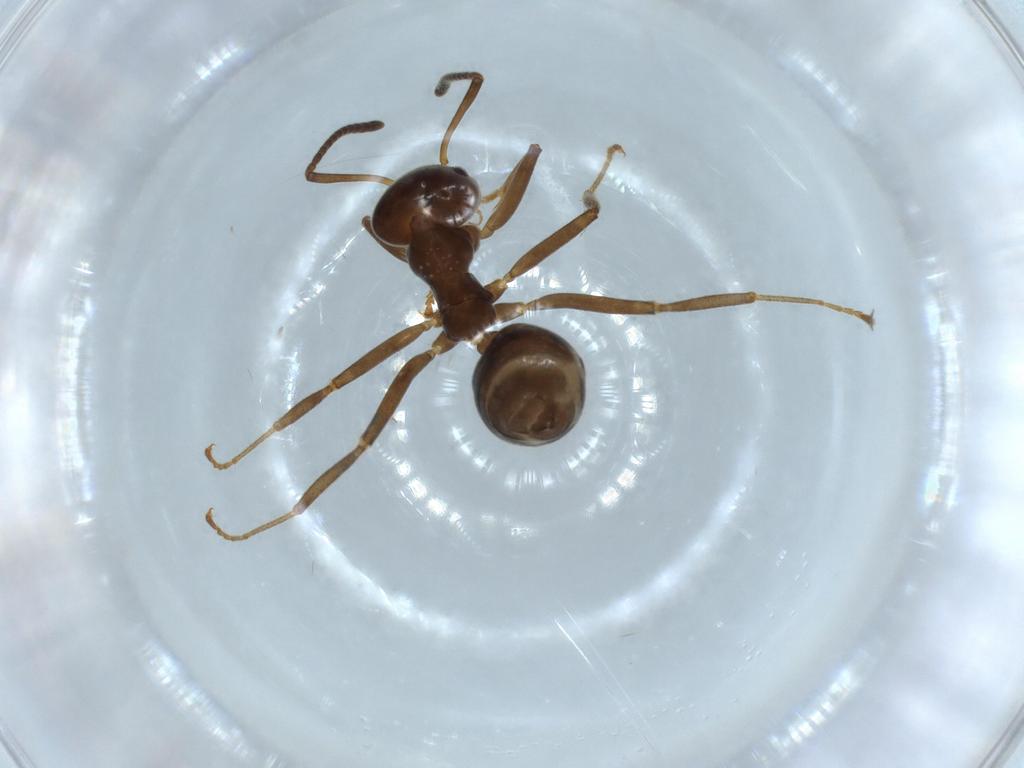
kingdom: Animalia
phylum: Arthropoda
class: Insecta
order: Hymenoptera
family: Formicidae
